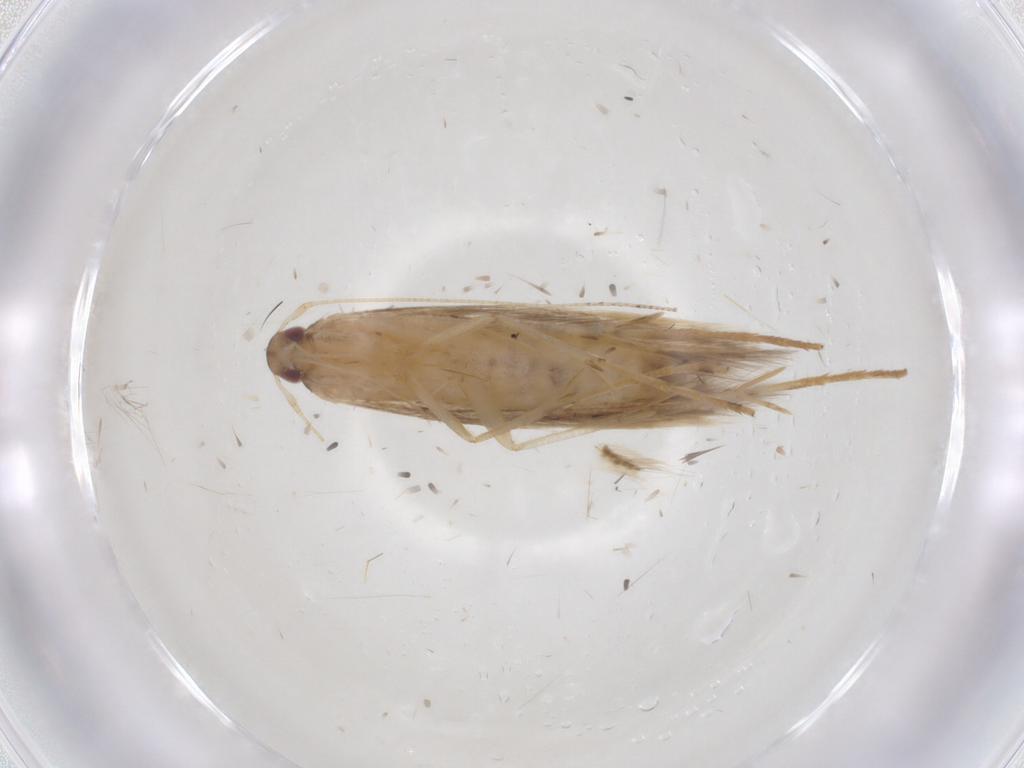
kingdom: Animalia
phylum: Arthropoda
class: Insecta
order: Lepidoptera
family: Cosmopterigidae
